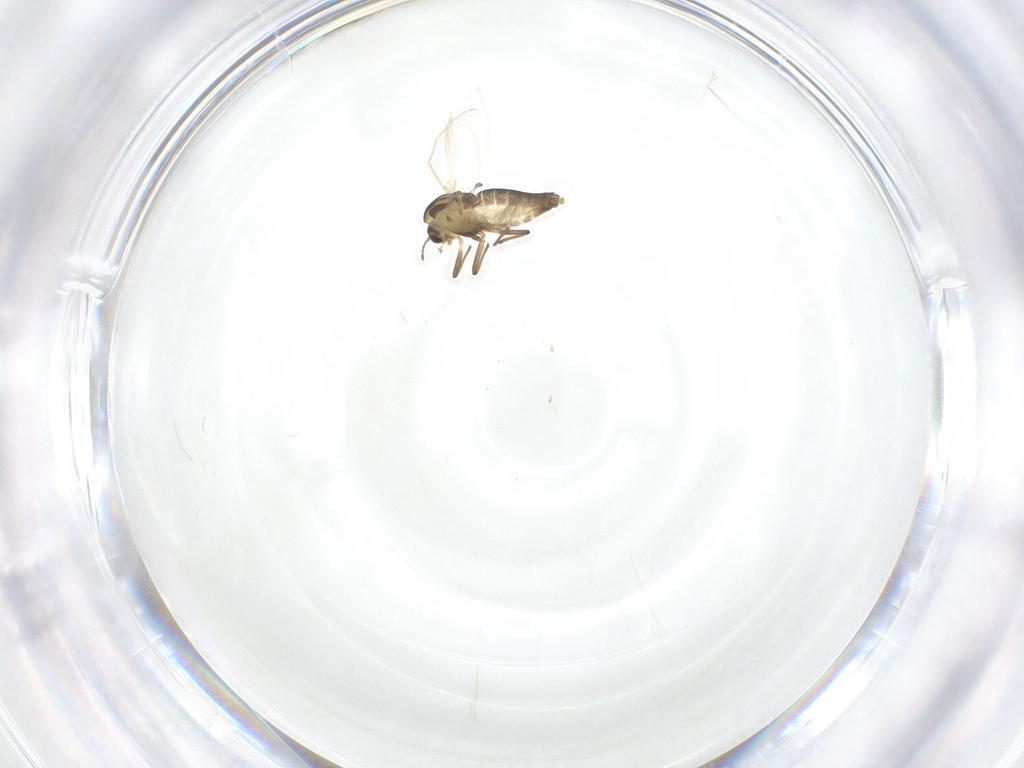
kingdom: Animalia
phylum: Arthropoda
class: Insecta
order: Diptera
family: Chironomidae
